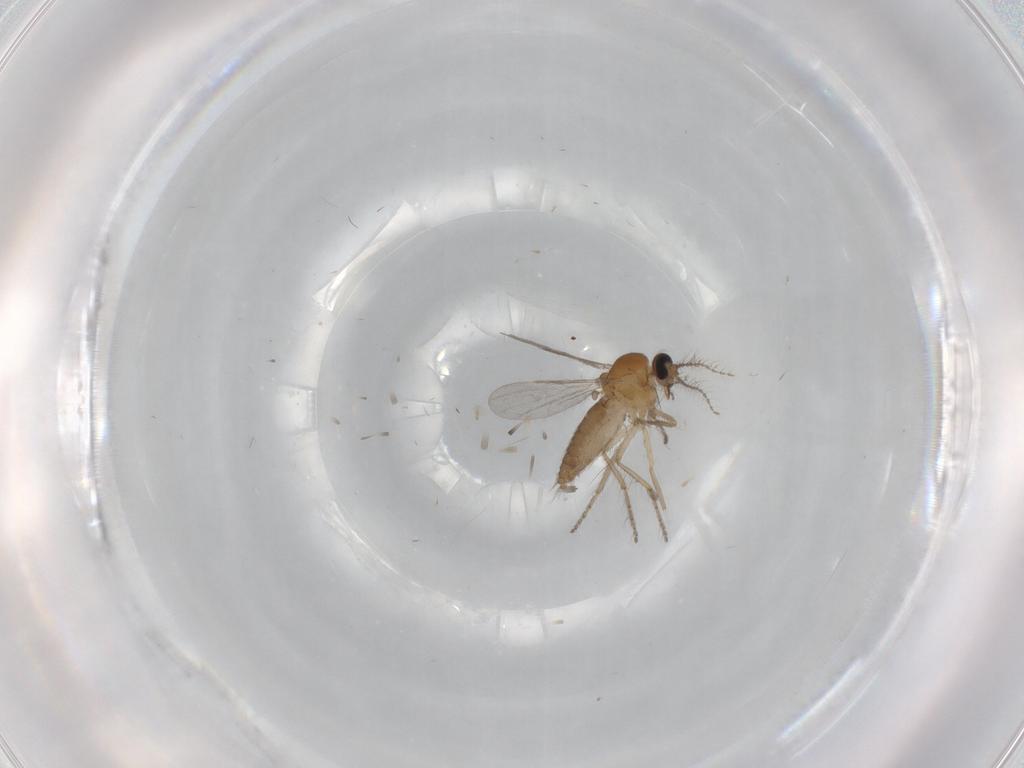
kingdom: Animalia
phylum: Arthropoda
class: Insecta
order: Diptera
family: Ceratopogonidae
